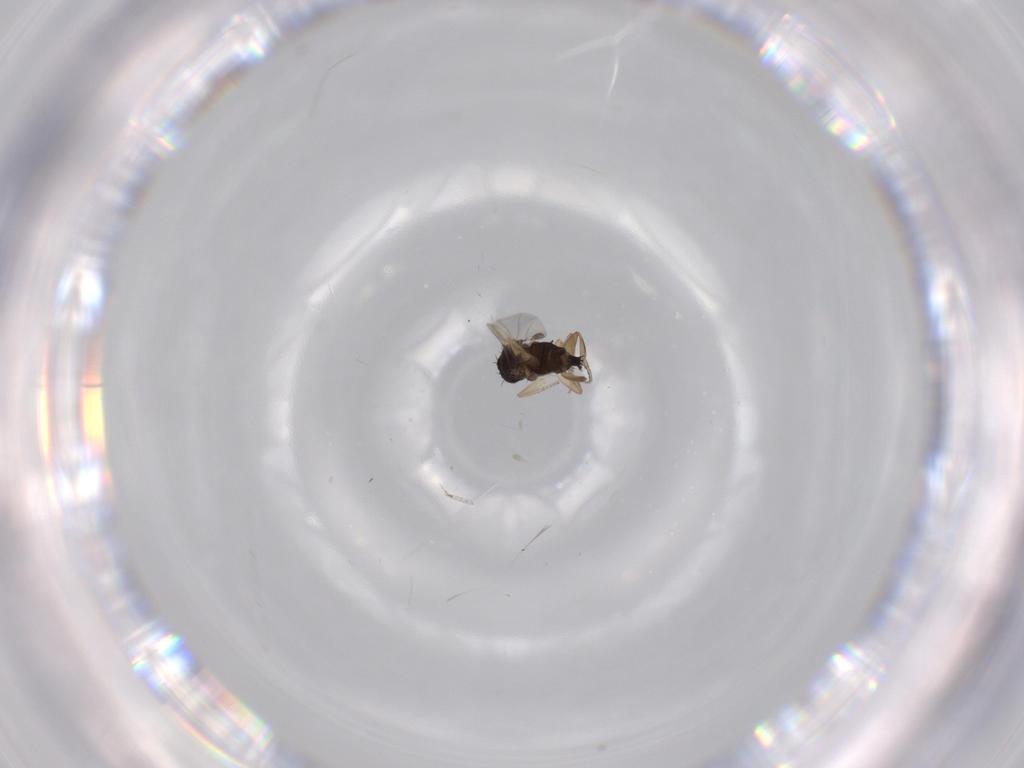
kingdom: Animalia
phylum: Arthropoda
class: Insecta
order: Diptera
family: Phoridae
